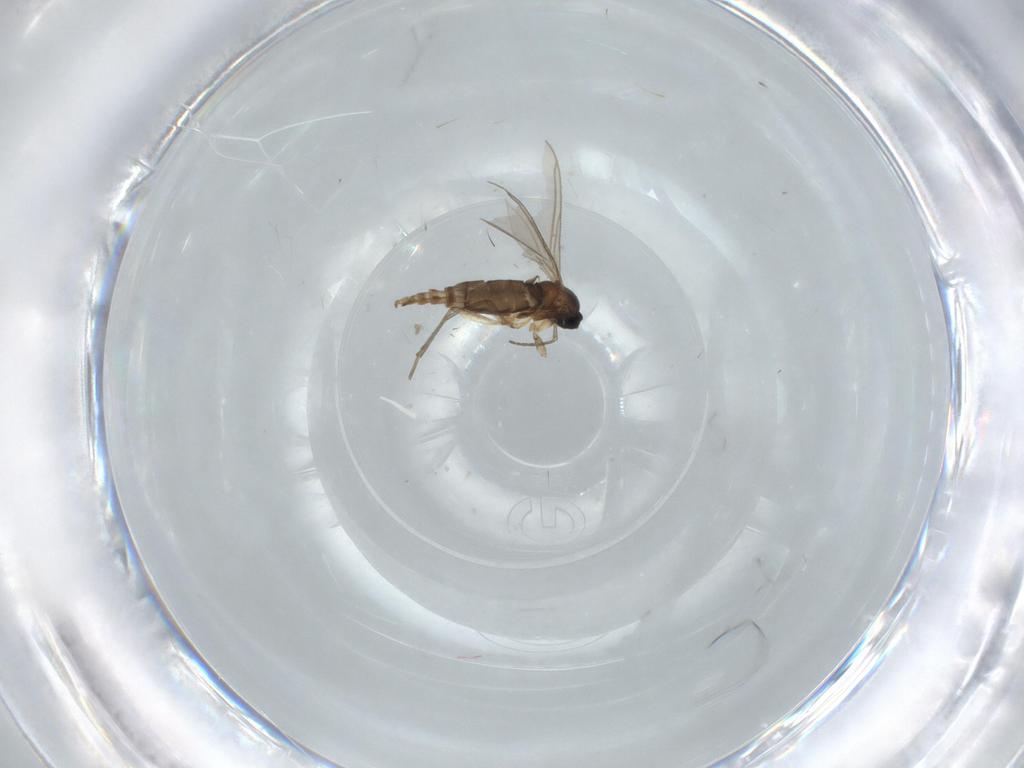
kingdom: Animalia
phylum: Arthropoda
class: Insecta
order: Diptera
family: Sciaridae
